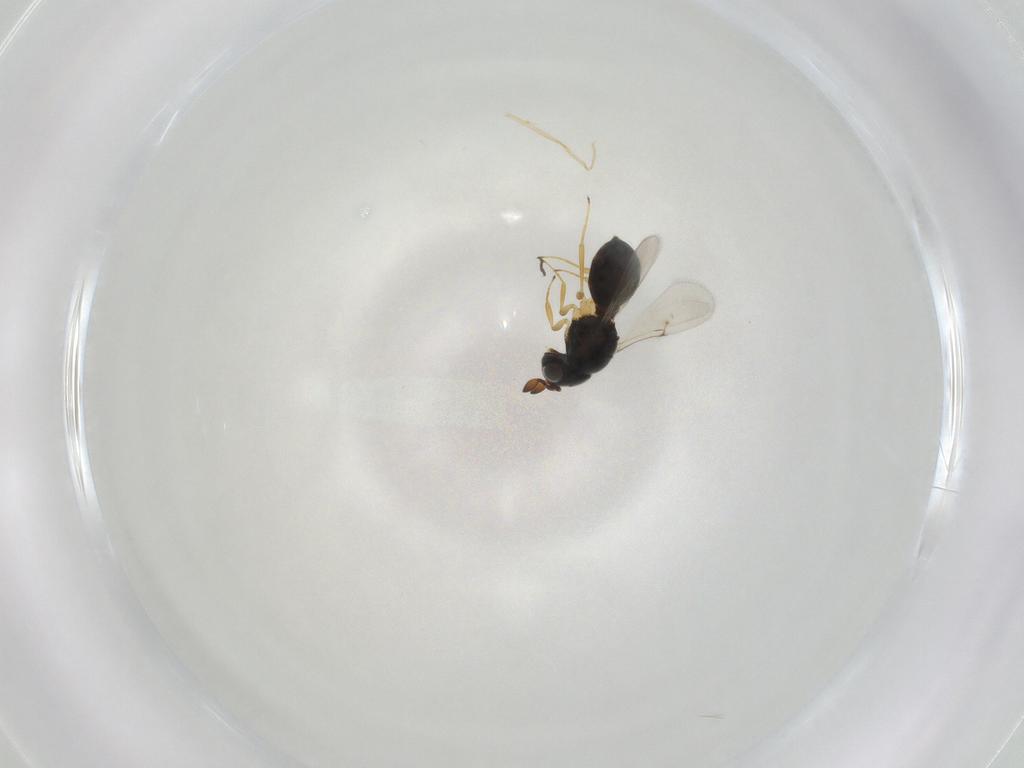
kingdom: Animalia
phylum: Arthropoda
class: Insecta
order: Hymenoptera
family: Scelionidae
